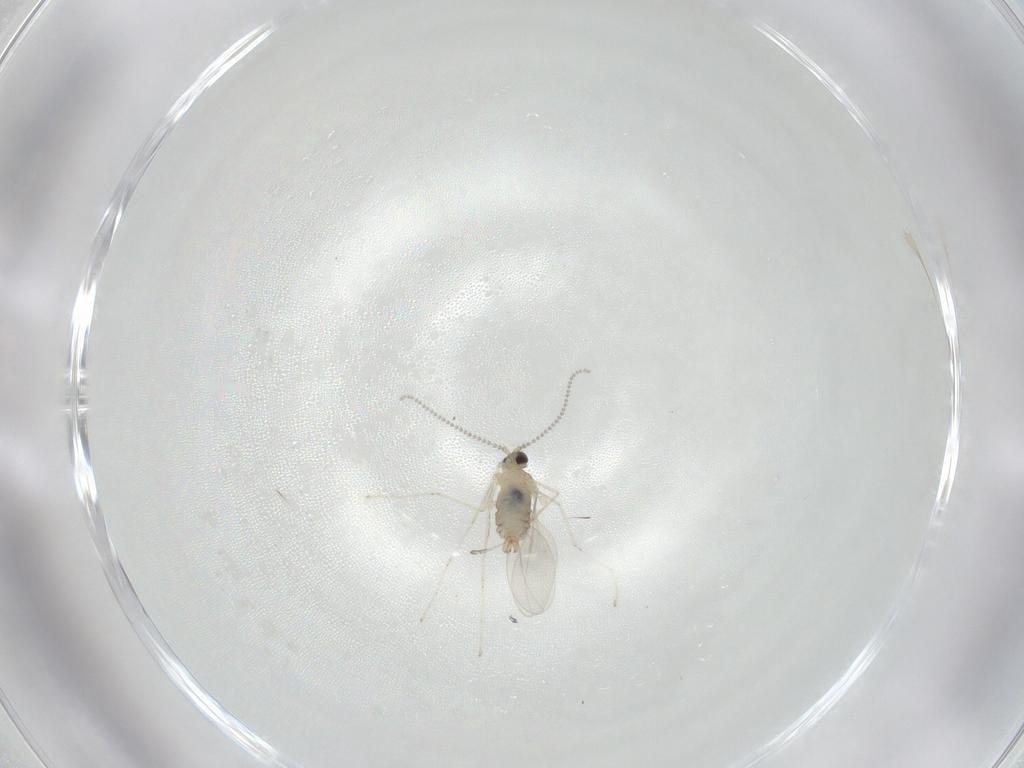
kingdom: Animalia
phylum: Arthropoda
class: Insecta
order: Diptera
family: Cecidomyiidae
